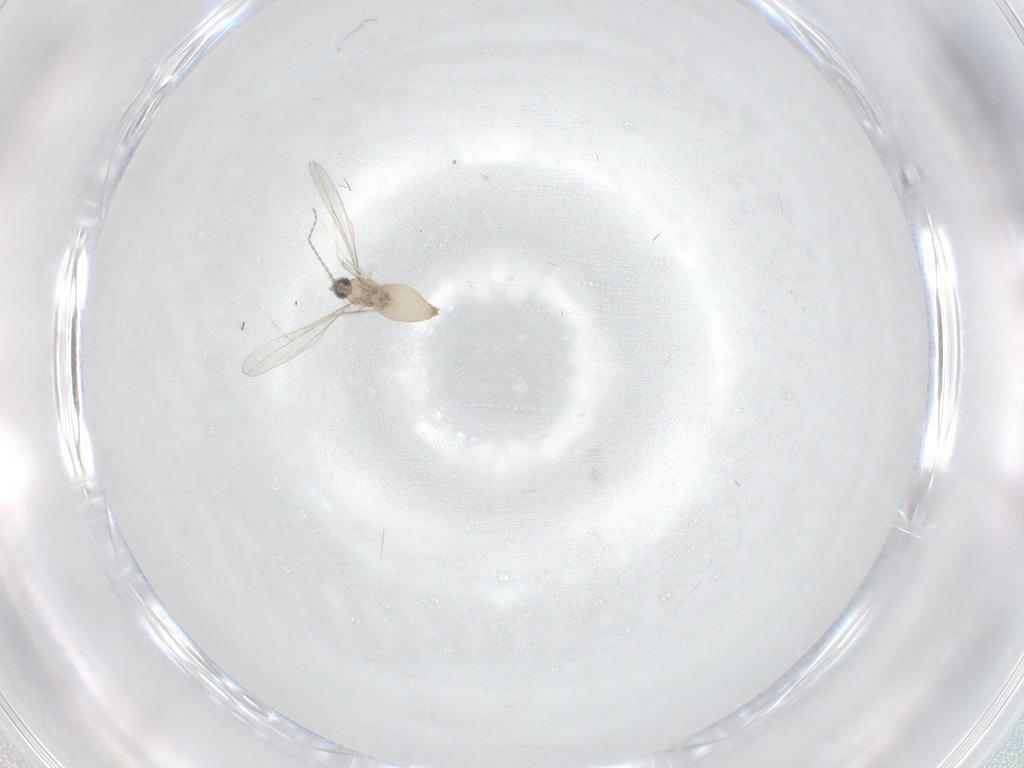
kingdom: Animalia
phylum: Arthropoda
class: Insecta
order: Diptera
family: Cecidomyiidae
